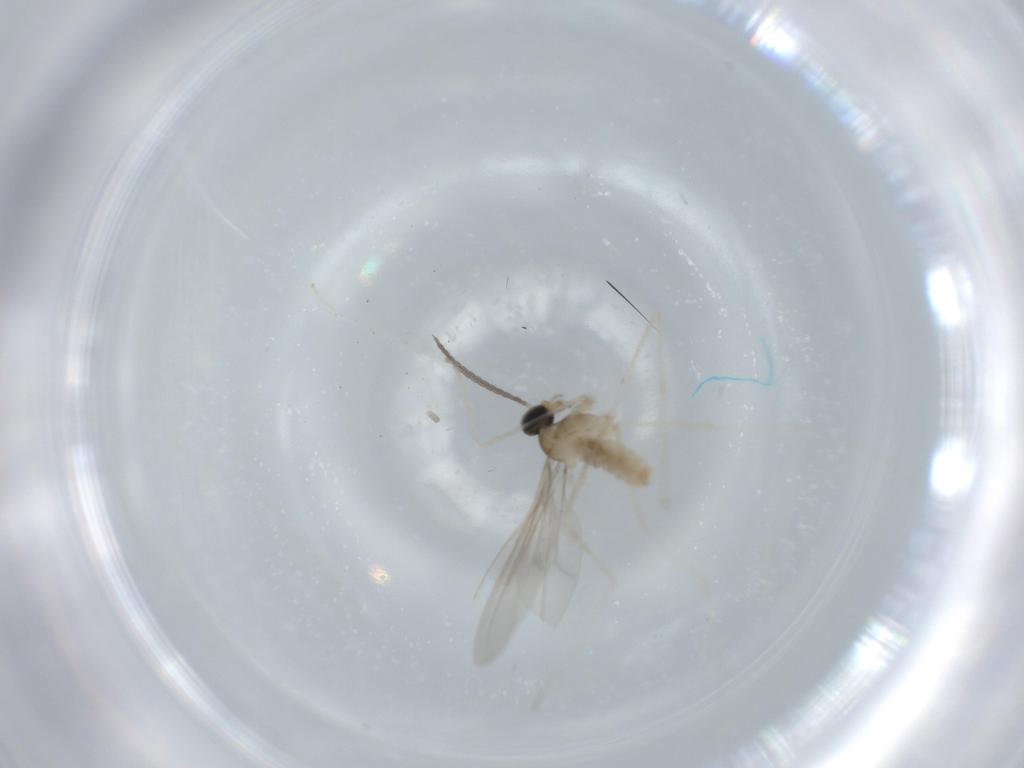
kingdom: Animalia
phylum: Arthropoda
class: Insecta
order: Diptera
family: Cecidomyiidae
